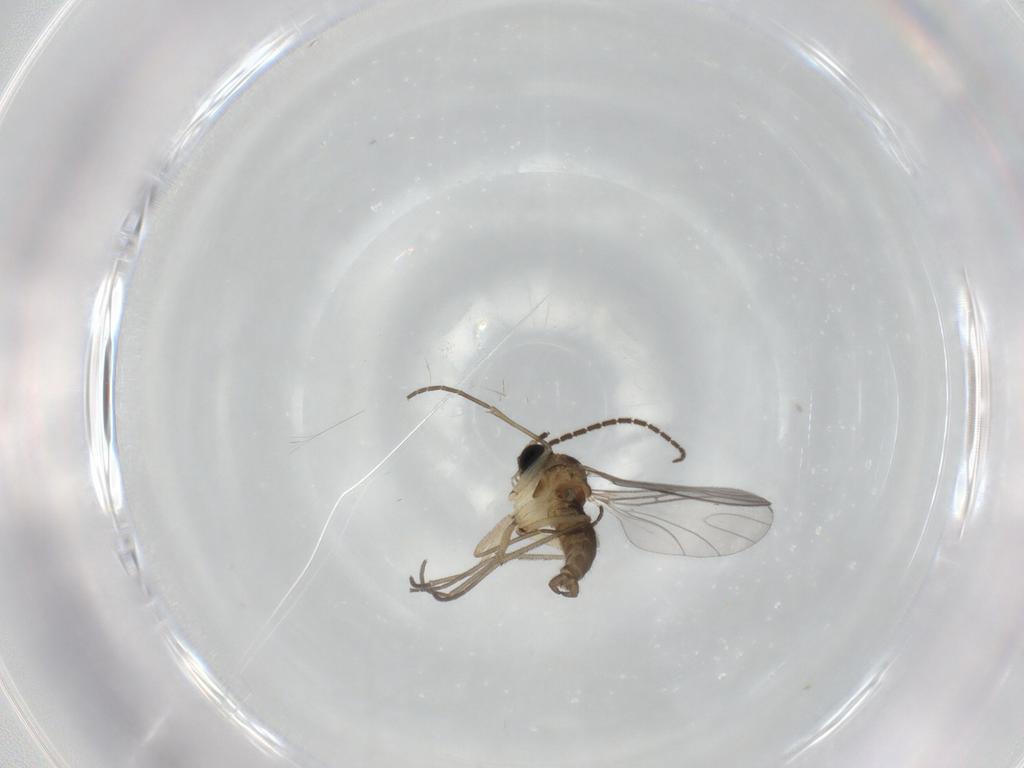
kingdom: Animalia
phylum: Arthropoda
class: Insecta
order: Diptera
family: Sciaridae
